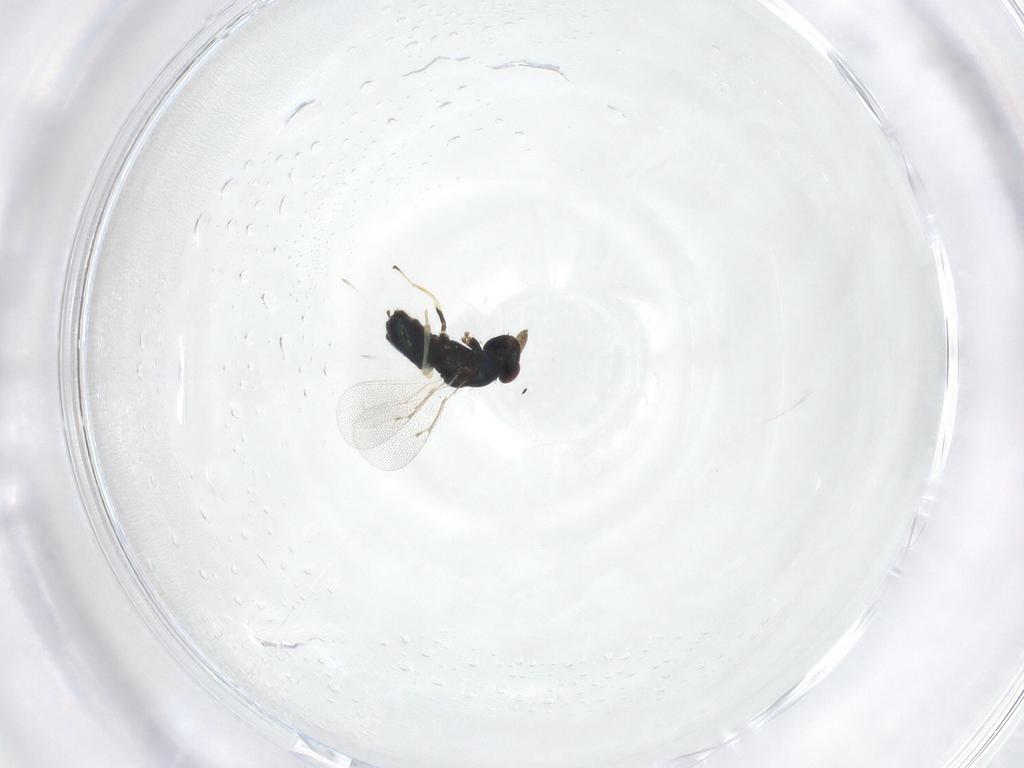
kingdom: Animalia
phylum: Arthropoda
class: Insecta
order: Hymenoptera
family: Eulophidae
